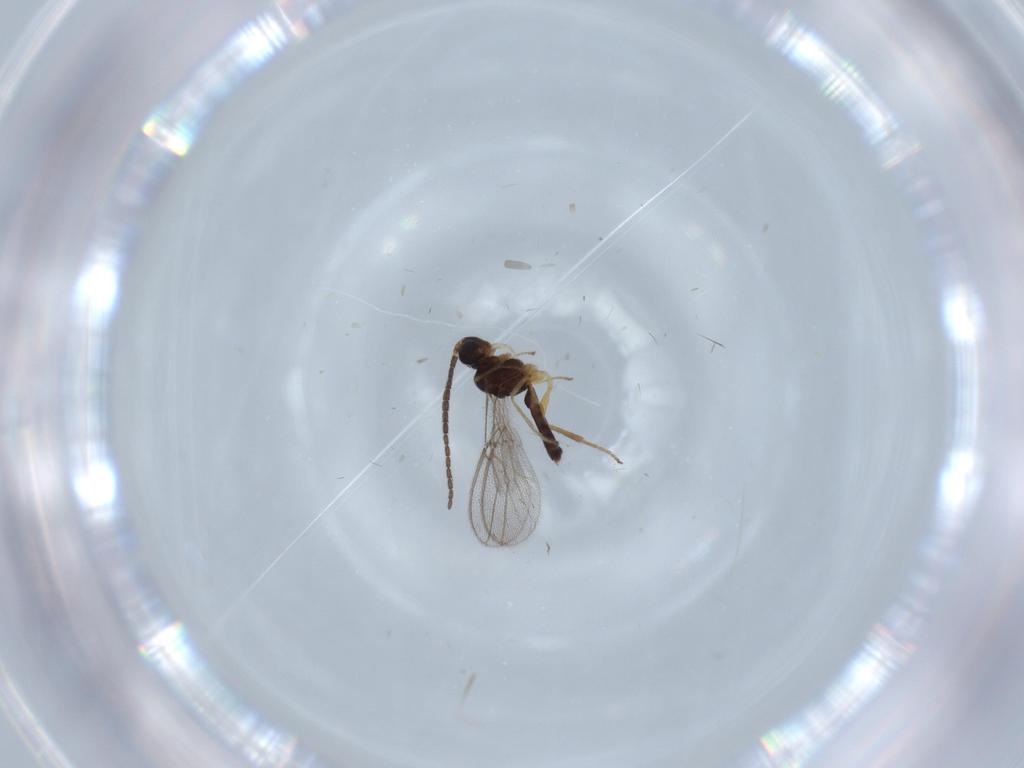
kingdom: Animalia
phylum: Arthropoda
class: Insecta
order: Hymenoptera
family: Braconidae
